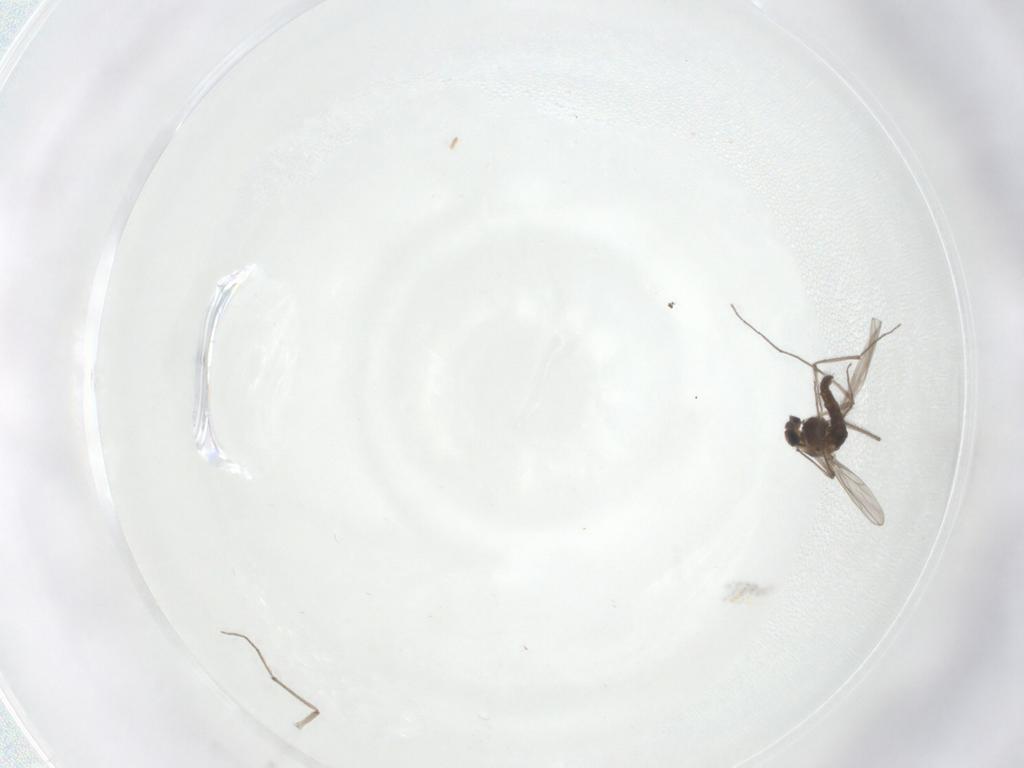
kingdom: Animalia
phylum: Arthropoda
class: Insecta
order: Diptera
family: Chironomidae
